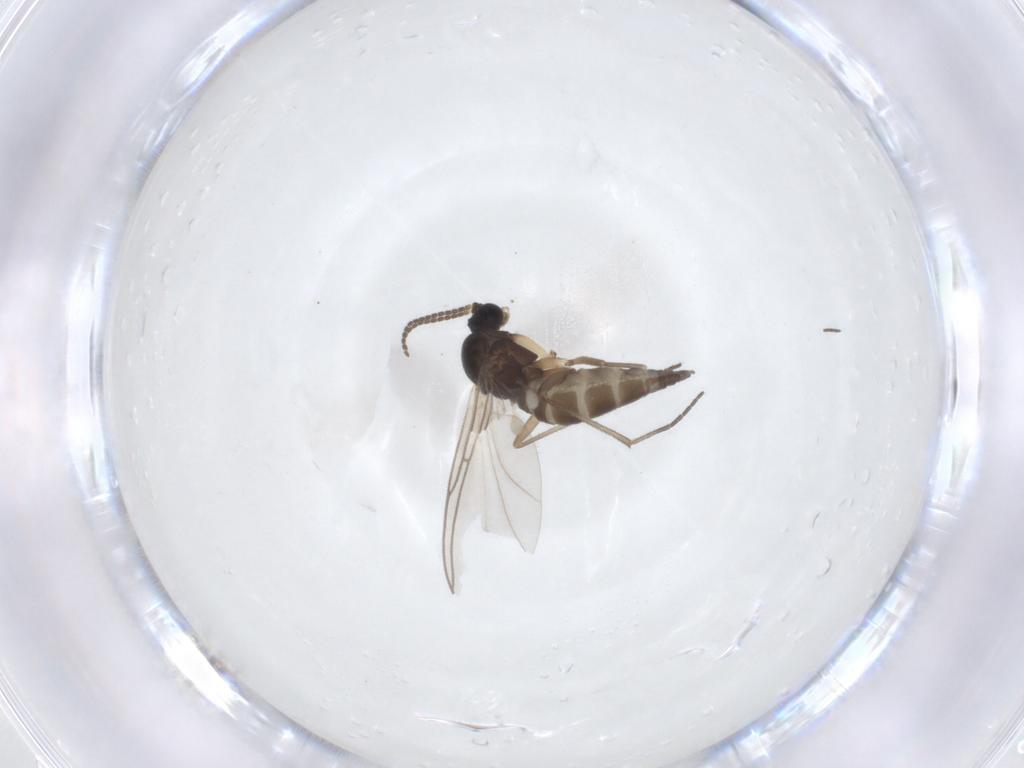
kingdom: Animalia
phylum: Arthropoda
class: Insecta
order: Diptera
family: Sciaridae
